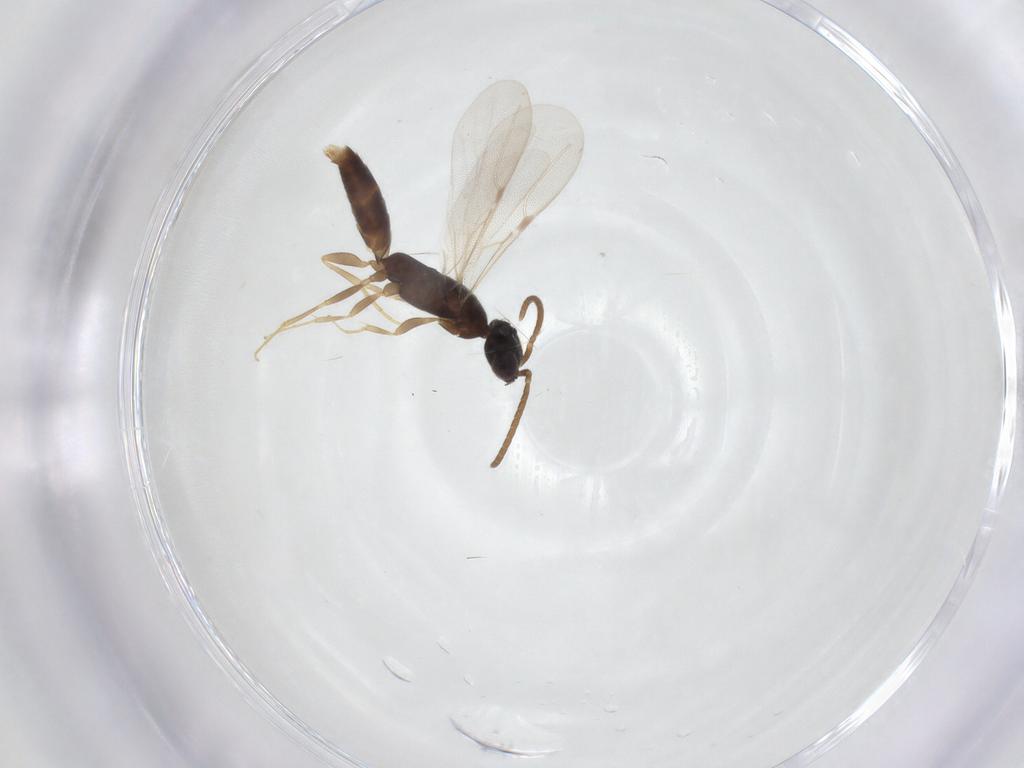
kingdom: Animalia
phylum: Arthropoda
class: Insecta
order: Hymenoptera
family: Bethylidae
